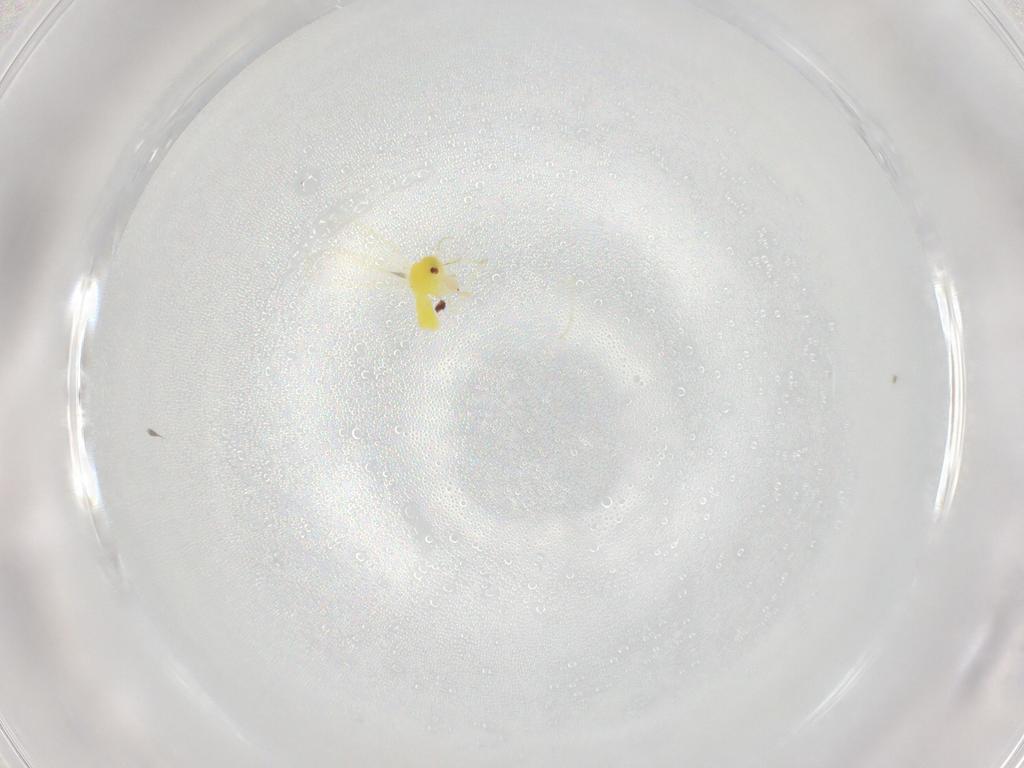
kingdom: Animalia
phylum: Arthropoda
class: Insecta
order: Hemiptera
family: Aleyrodidae
